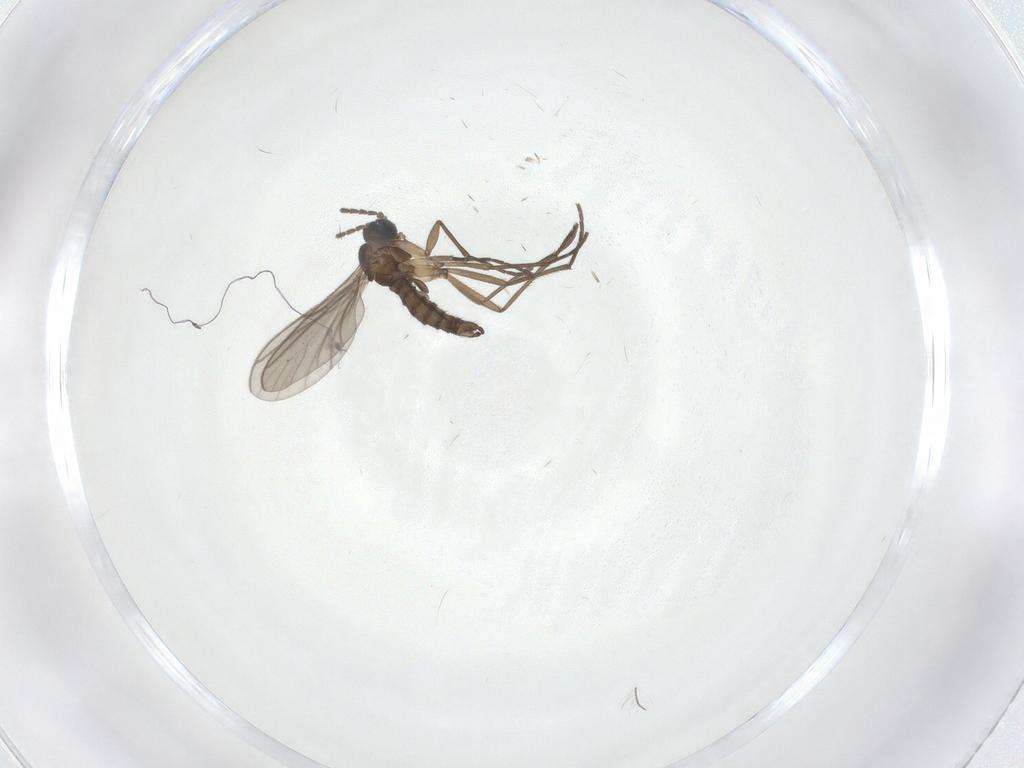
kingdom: Animalia
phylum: Arthropoda
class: Insecta
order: Diptera
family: Sciaridae
